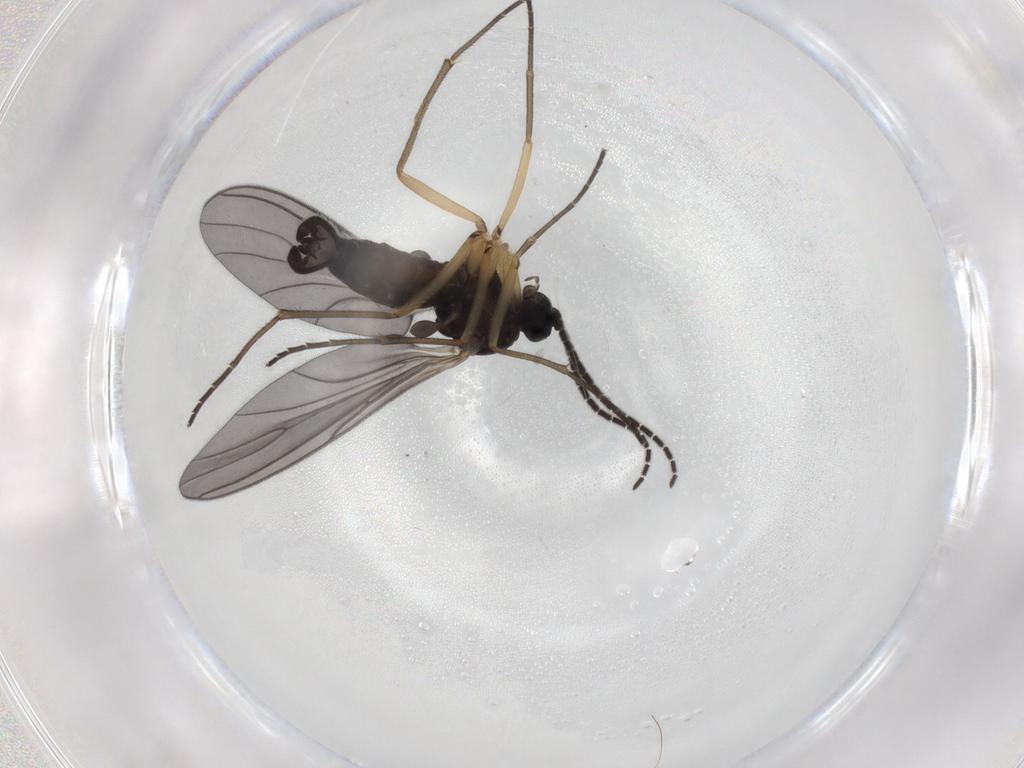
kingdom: Animalia
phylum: Arthropoda
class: Insecta
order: Diptera
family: Sciaridae
